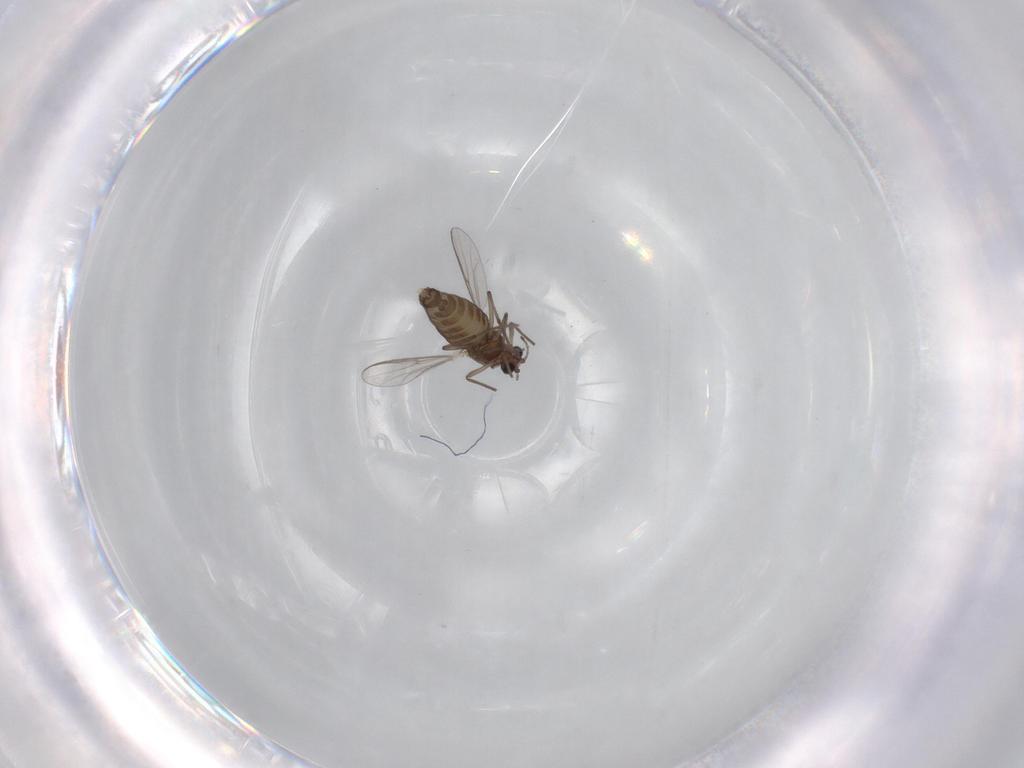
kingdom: Animalia
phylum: Arthropoda
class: Insecta
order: Diptera
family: Chironomidae
